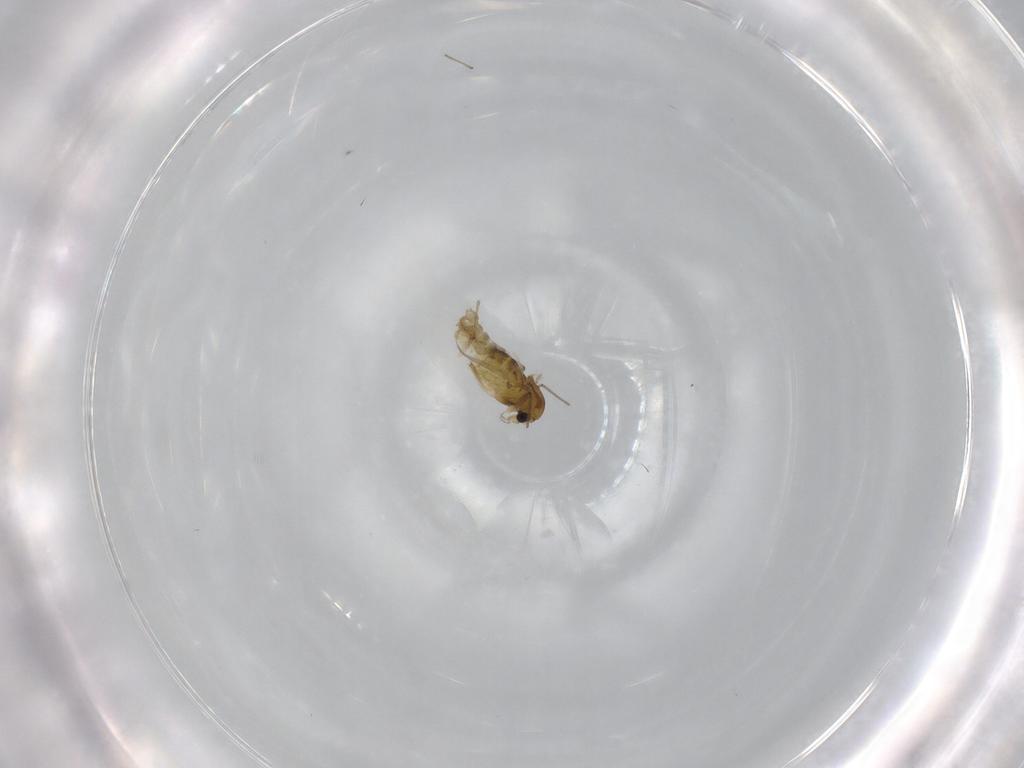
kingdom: Animalia
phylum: Arthropoda
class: Insecta
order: Diptera
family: Chironomidae
